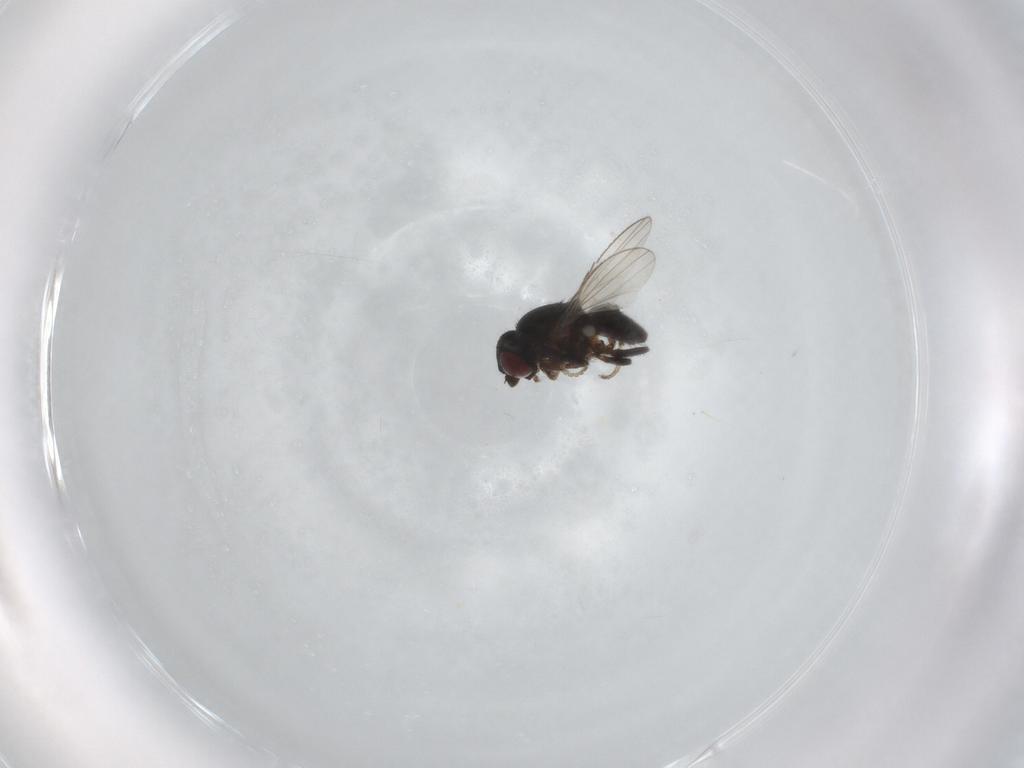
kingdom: Animalia
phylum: Arthropoda
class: Insecta
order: Diptera
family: Milichiidae
